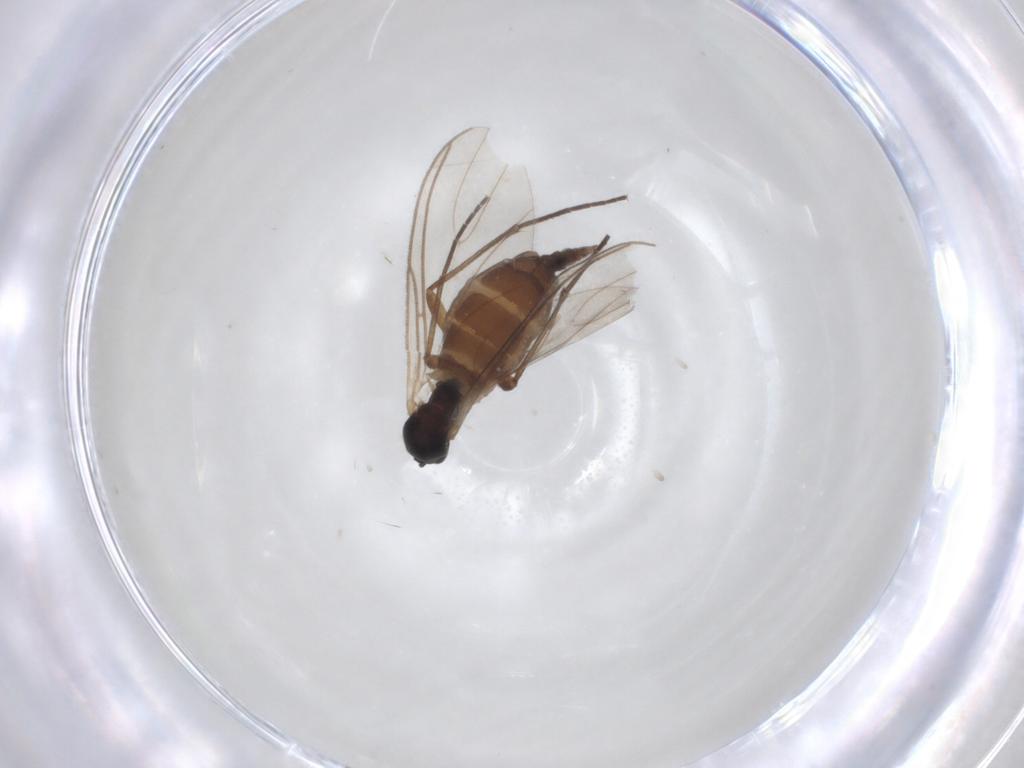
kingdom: Animalia
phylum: Arthropoda
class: Insecta
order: Diptera
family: Sciaridae
